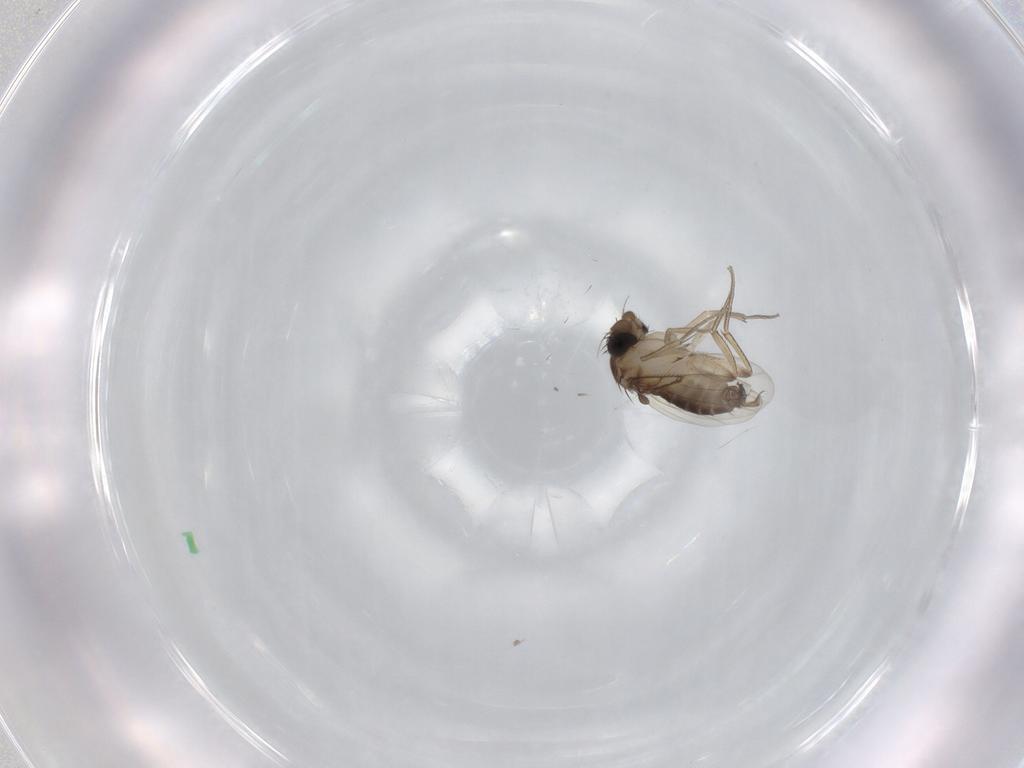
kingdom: Animalia
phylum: Arthropoda
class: Insecta
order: Diptera
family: Phoridae
